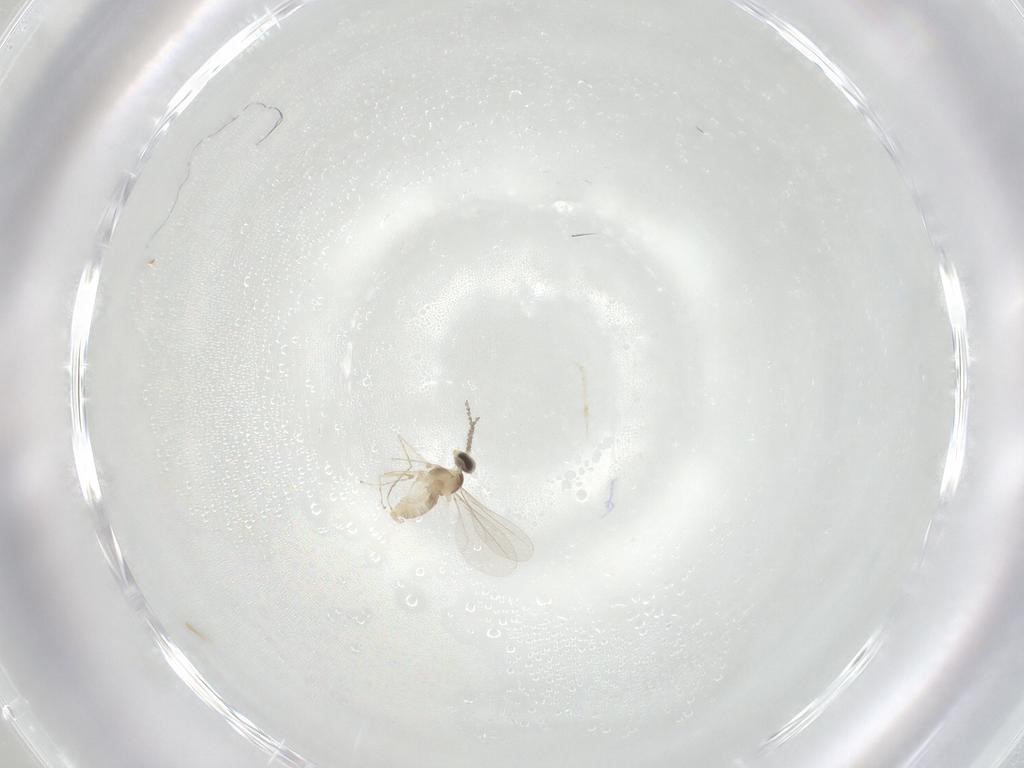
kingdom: Animalia
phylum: Arthropoda
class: Insecta
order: Diptera
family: Cecidomyiidae
